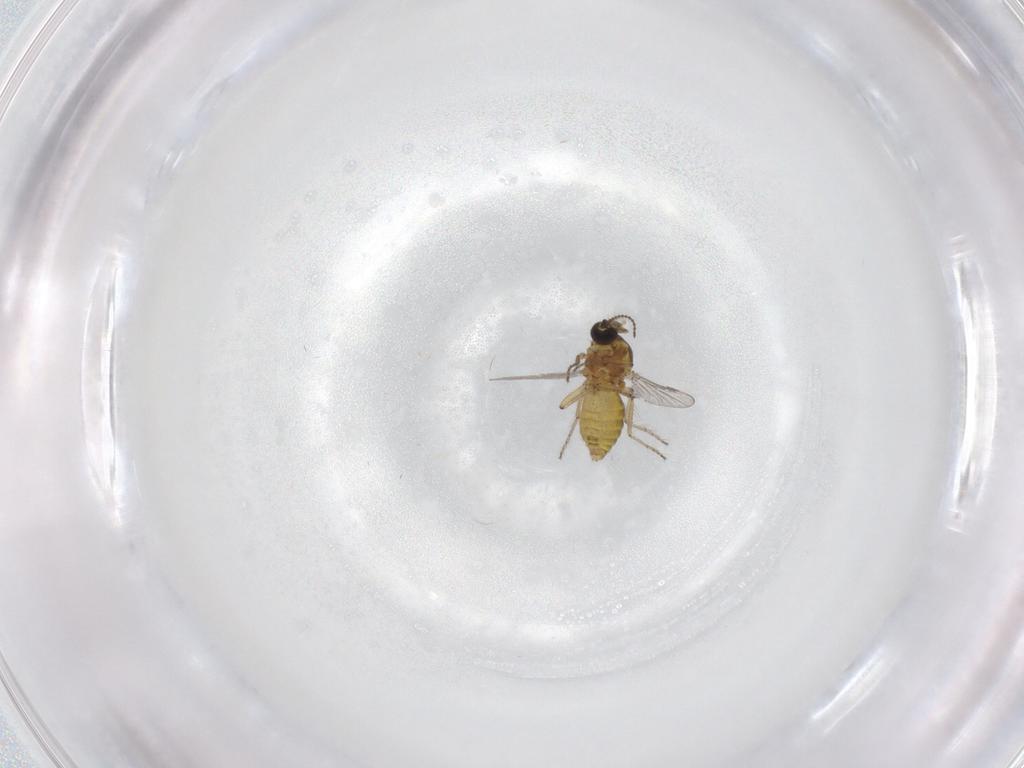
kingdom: Animalia
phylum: Arthropoda
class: Insecta
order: Diptera
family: Ceratopogonidae
